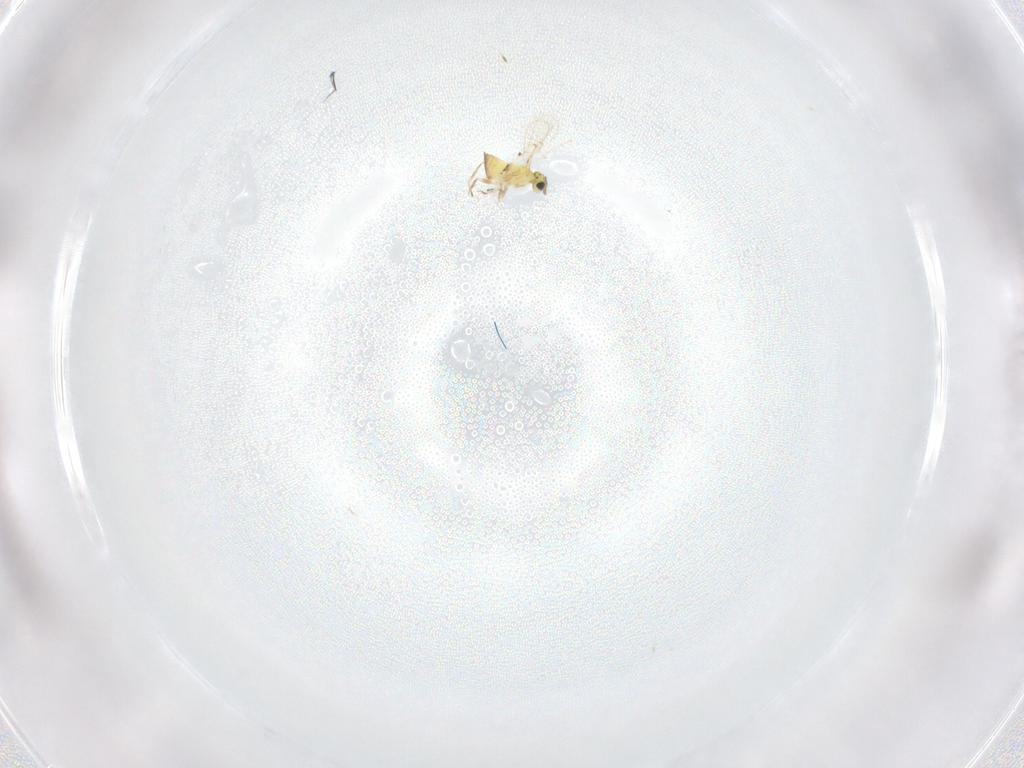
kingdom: Animalia
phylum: Arthropoda
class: Insecta
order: Hymenoptera
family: Trichogrammatidae
